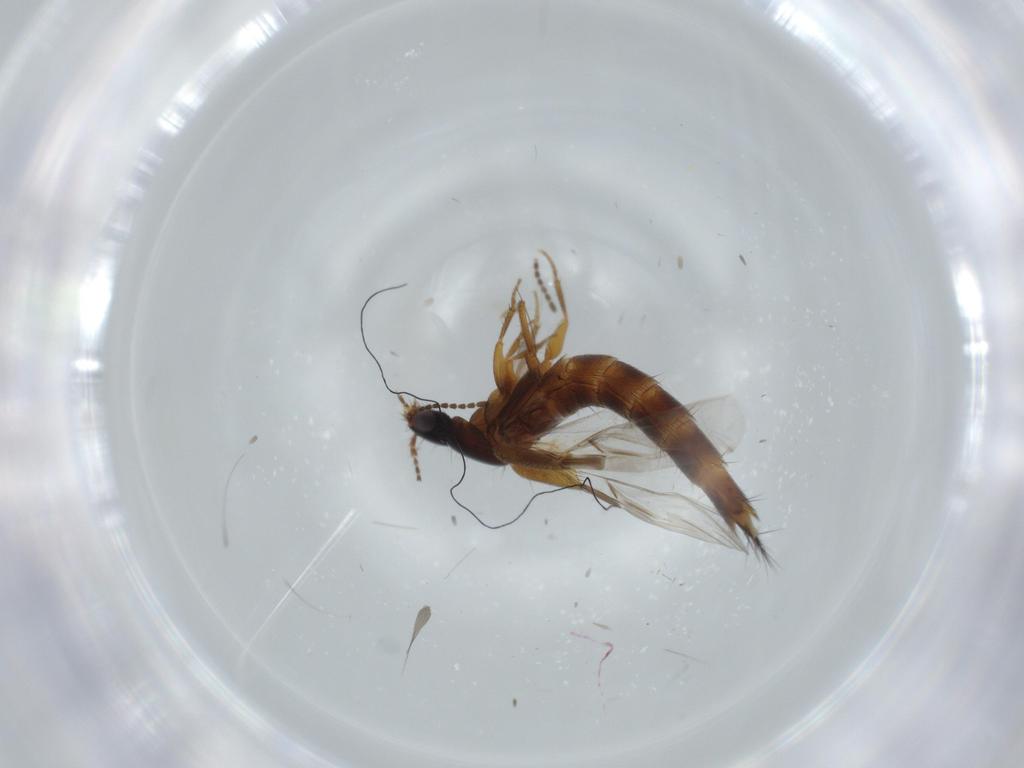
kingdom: Animalia
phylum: Arthropoda
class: Insecta
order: Coleoptera
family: Staphylinidae
